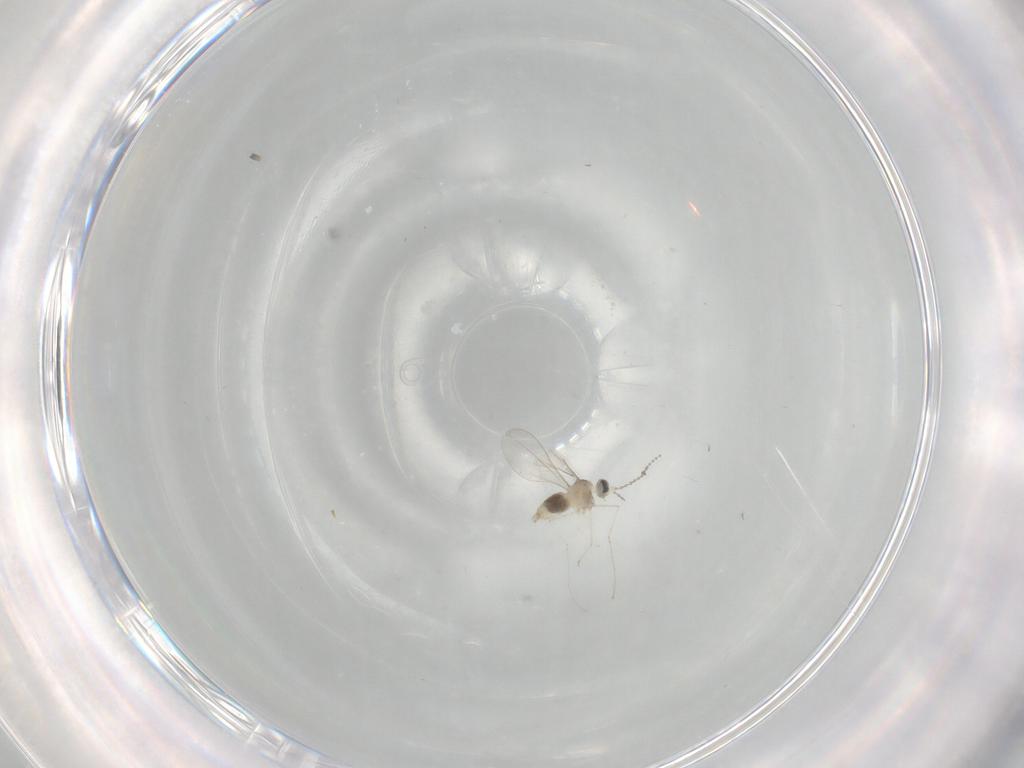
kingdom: Animalia
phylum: Arthropoda
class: Insecta
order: Diptera
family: Cecidomyiidae
